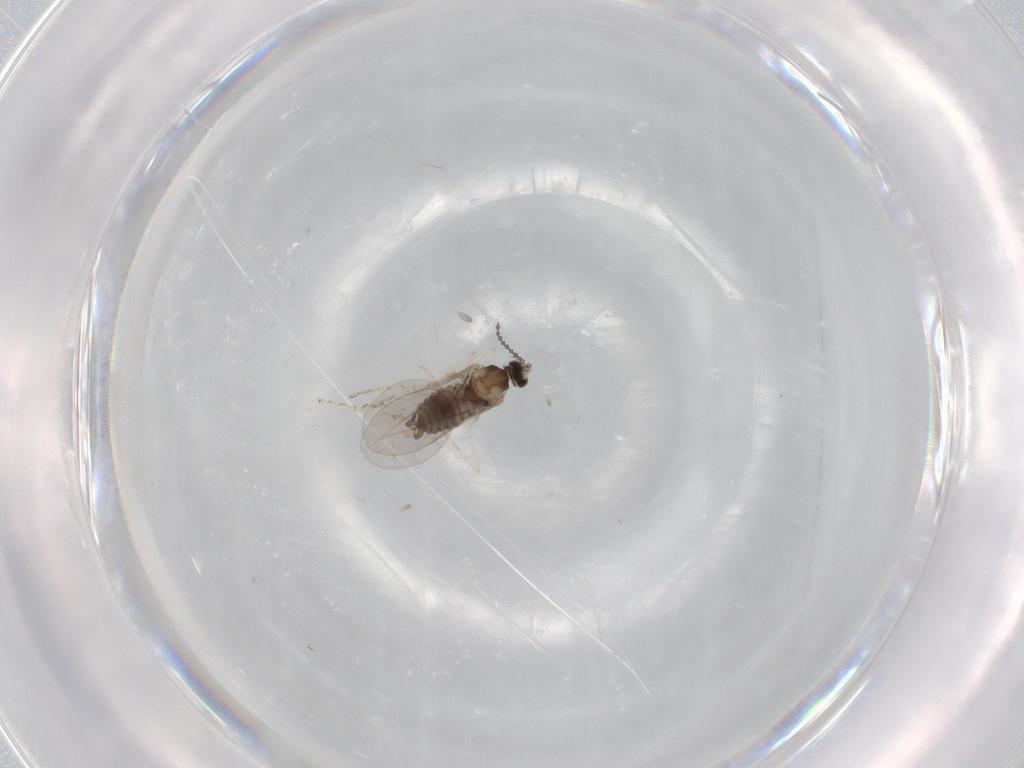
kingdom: Animalia
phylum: Arthropoda
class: Insecta
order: Diptera
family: Cecidomyiidae
